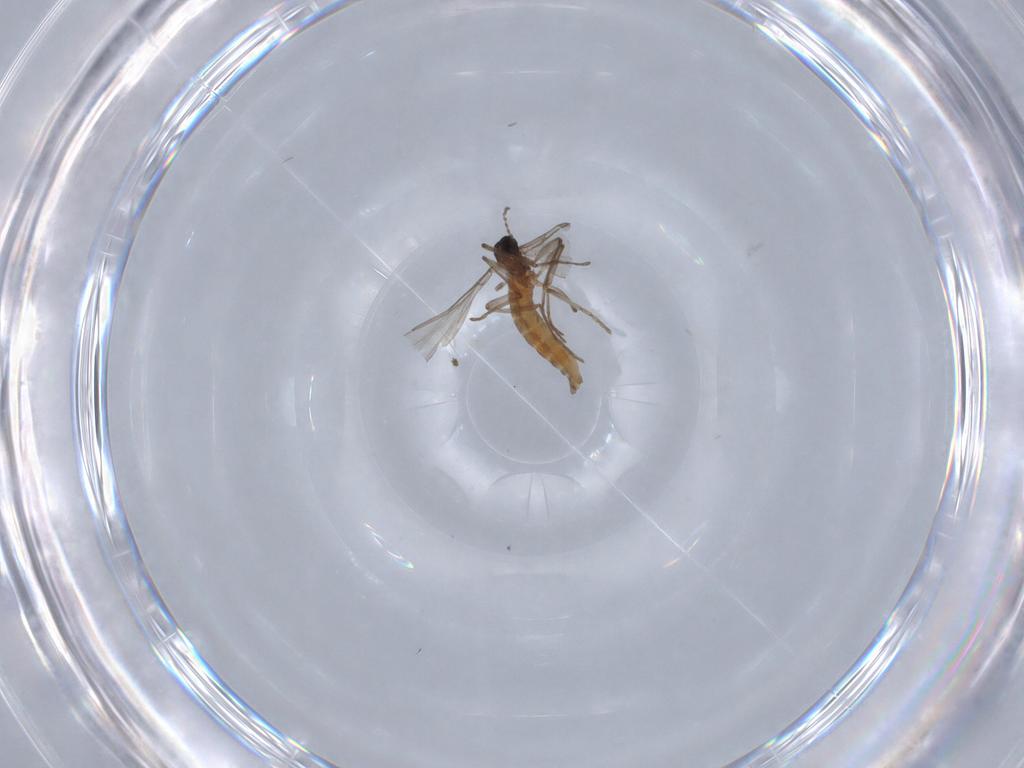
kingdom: Animalia
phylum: Arthropoda
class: Insecta
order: Diptera
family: Cecidomyiidae
